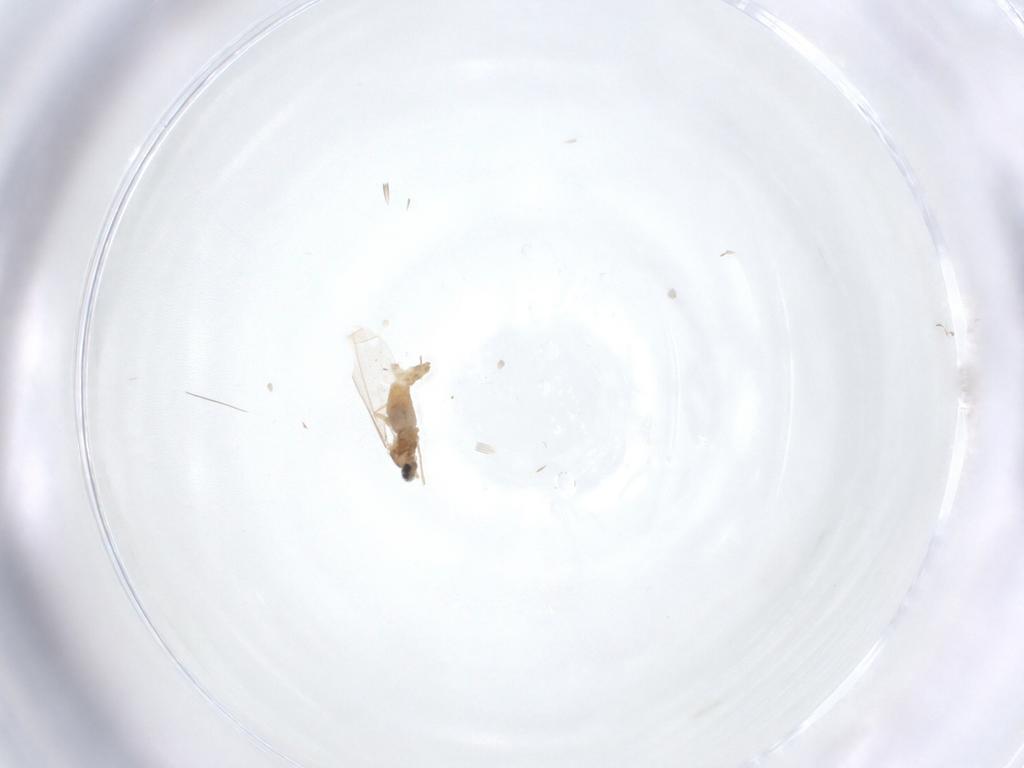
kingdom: Animalia
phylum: Arthropoda
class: Insecta
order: Diptera
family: Cecidomyiidae
